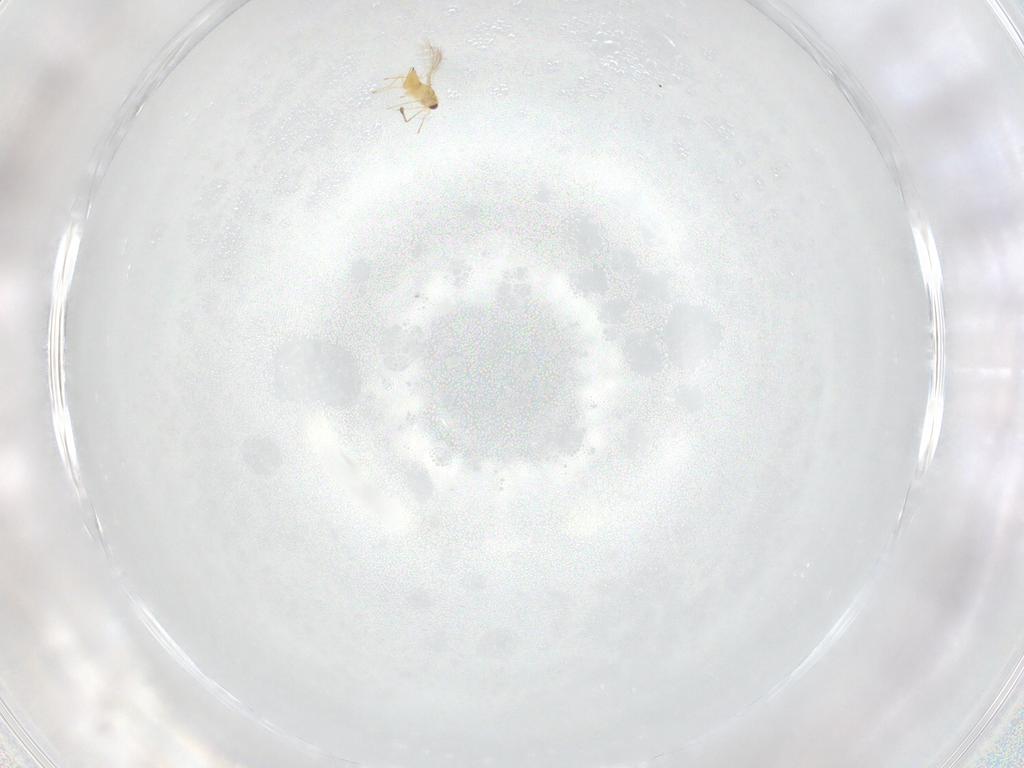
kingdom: Animalia
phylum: Arthropoda
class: Insecta
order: Hymenoptera
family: Mymaridae
